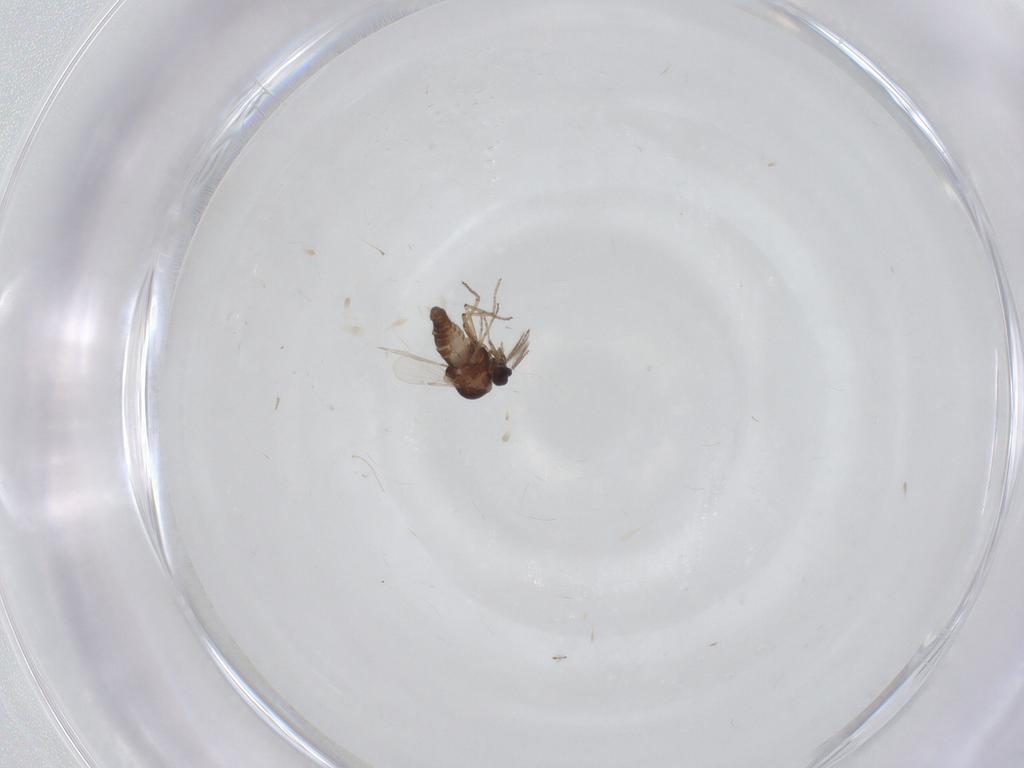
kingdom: Animalia
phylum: Arthropoda
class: Insecta
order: Diptera
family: Ceratopogonidae
